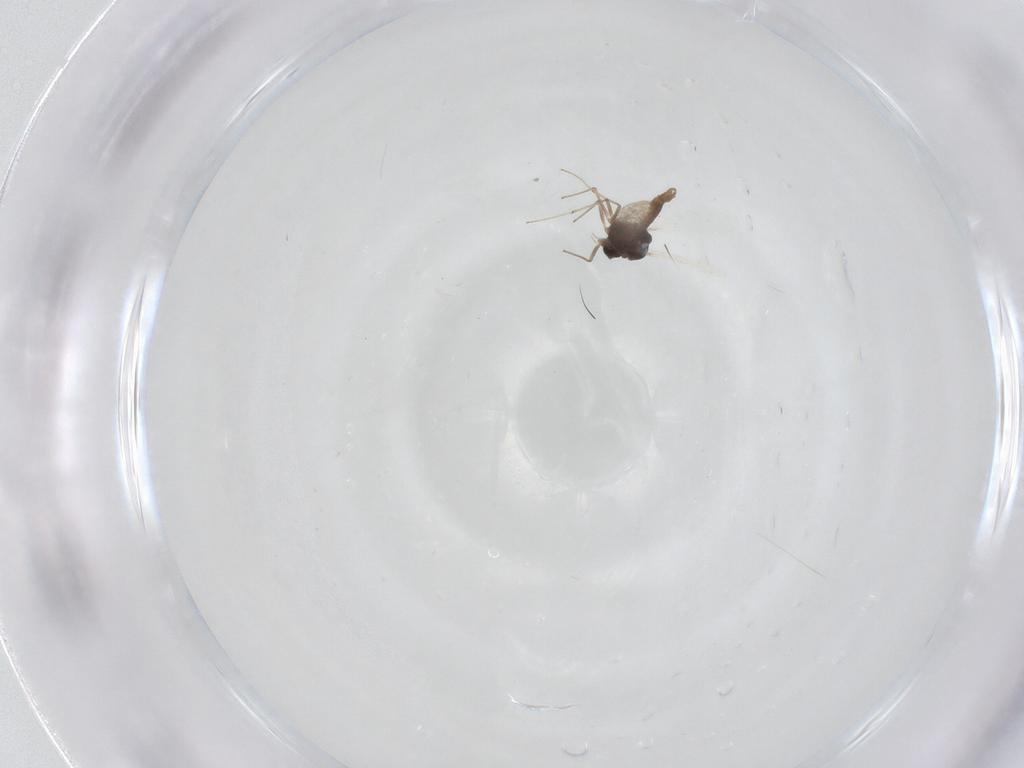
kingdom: Animalia
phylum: Arthropoda
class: Insecta
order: Diptera
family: Chironomidae
